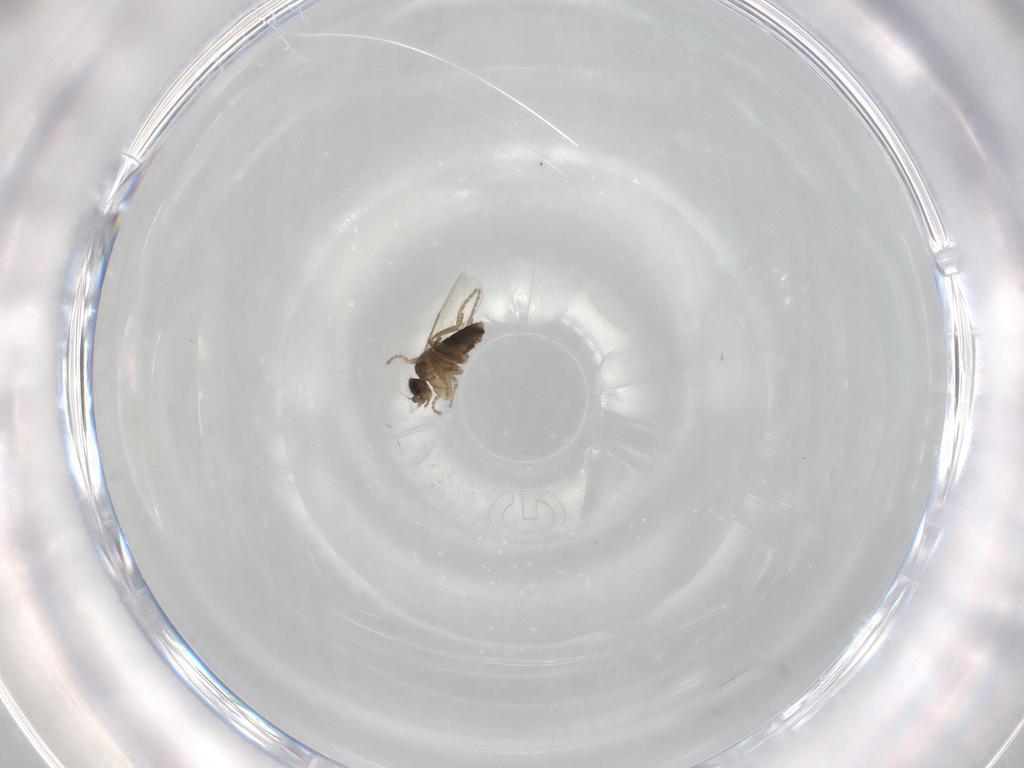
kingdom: Animalia
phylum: Arthropoda
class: Insecta
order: Diptera
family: Phoridae
